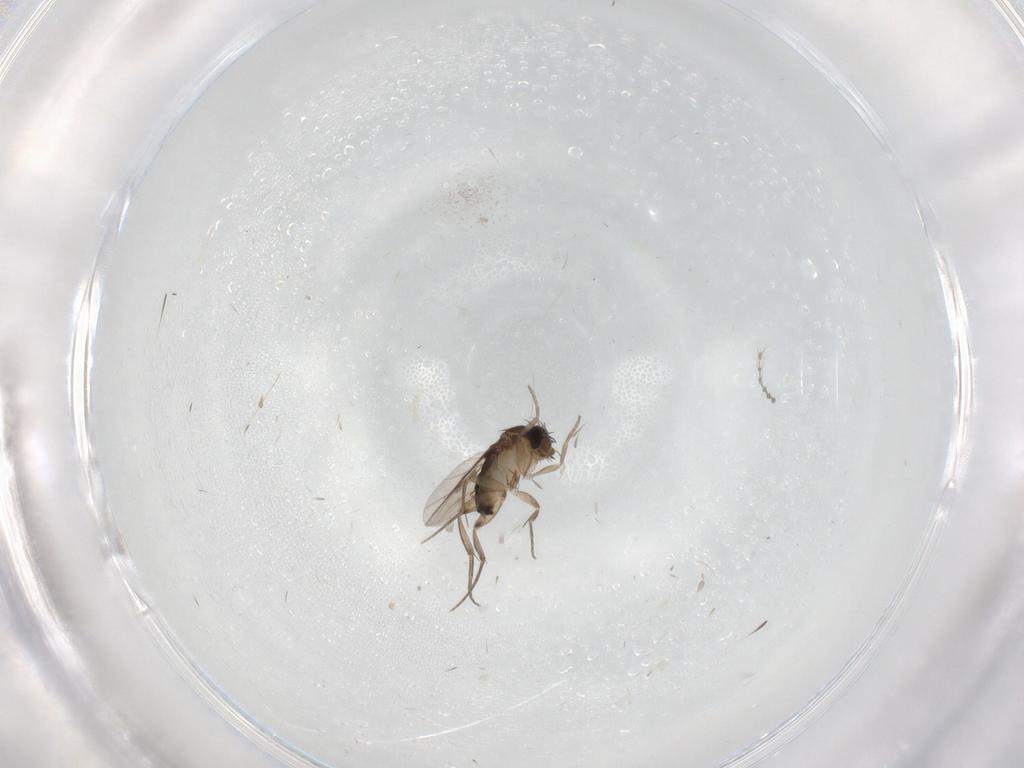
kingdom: Animalia
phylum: Arthropoda
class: Insecta
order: Diptera
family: Phoridae
